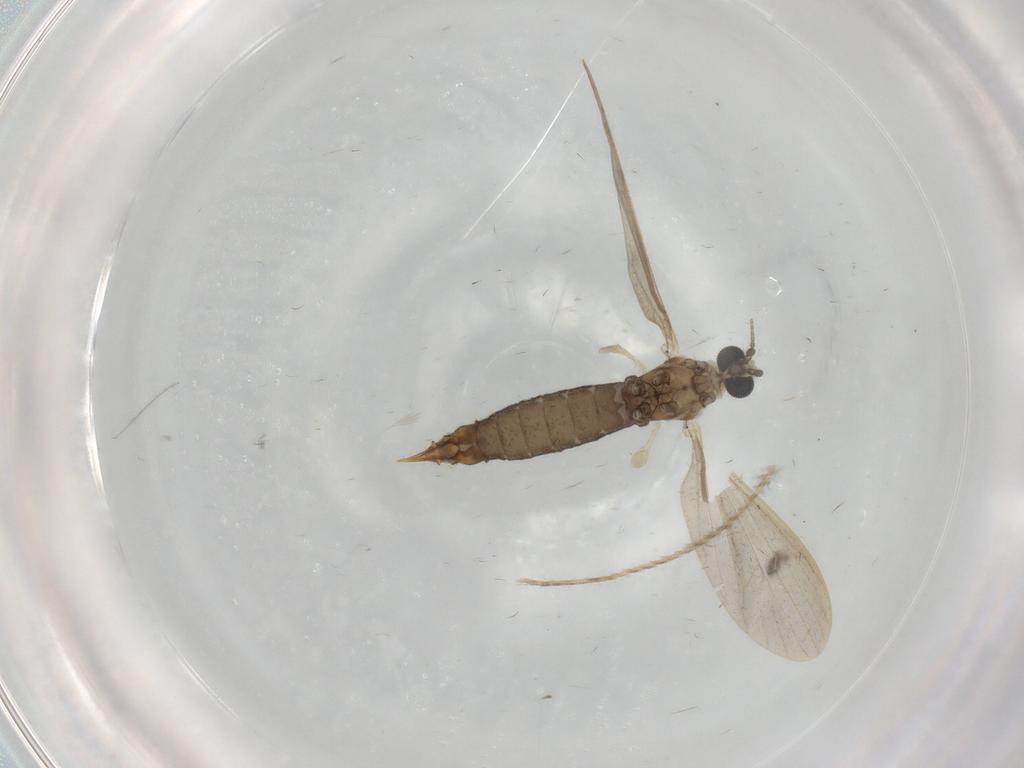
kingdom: Animalia
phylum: Arthropoda
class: Insecta
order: Diptera
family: Limoniidae
